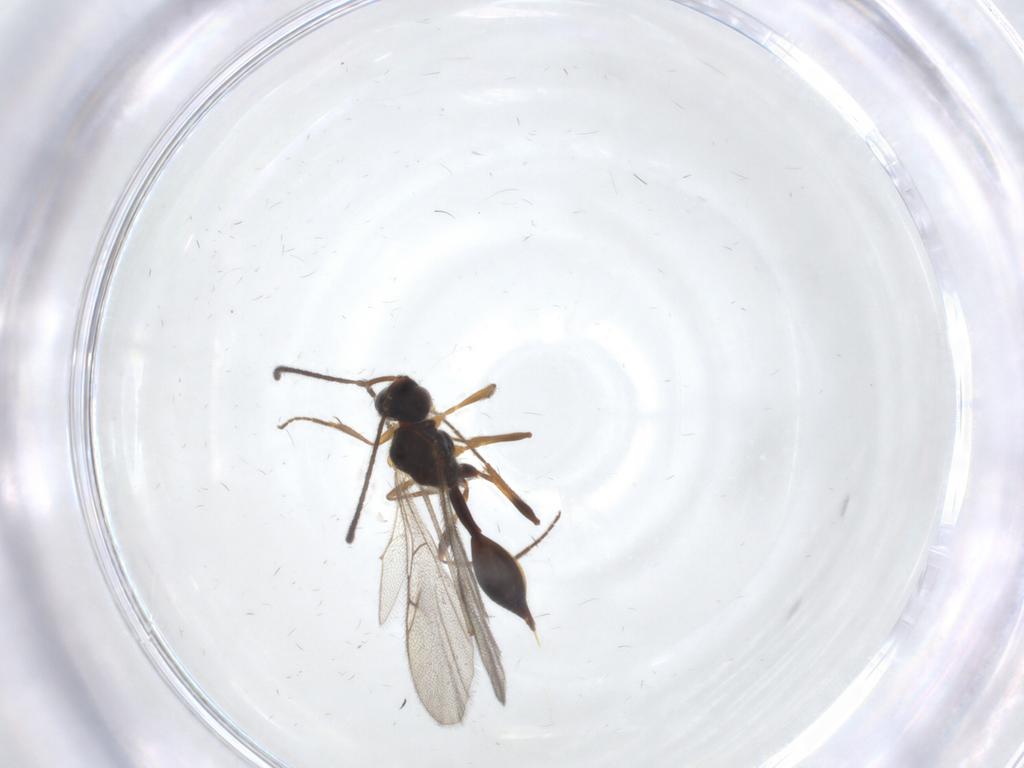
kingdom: Animalia
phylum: Arthropoda
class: Insecta
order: Hymenoptera
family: Diapriidae
